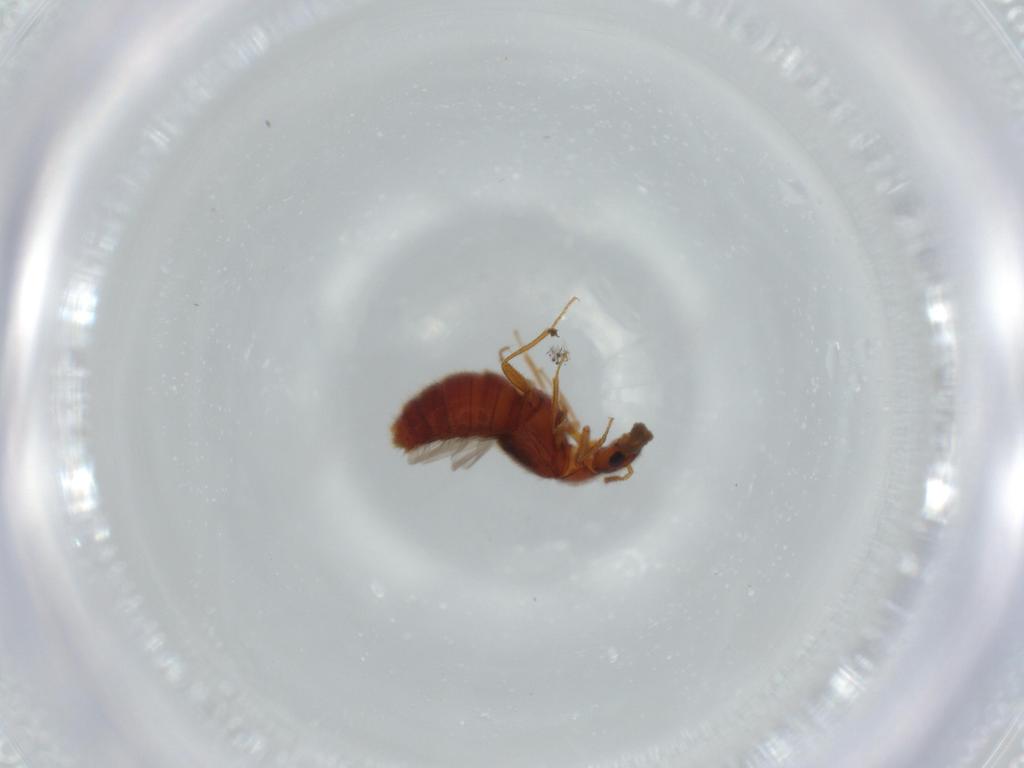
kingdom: Animalia
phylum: Arthropoda
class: Insecta
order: Coleoptera
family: Staphylinidae
